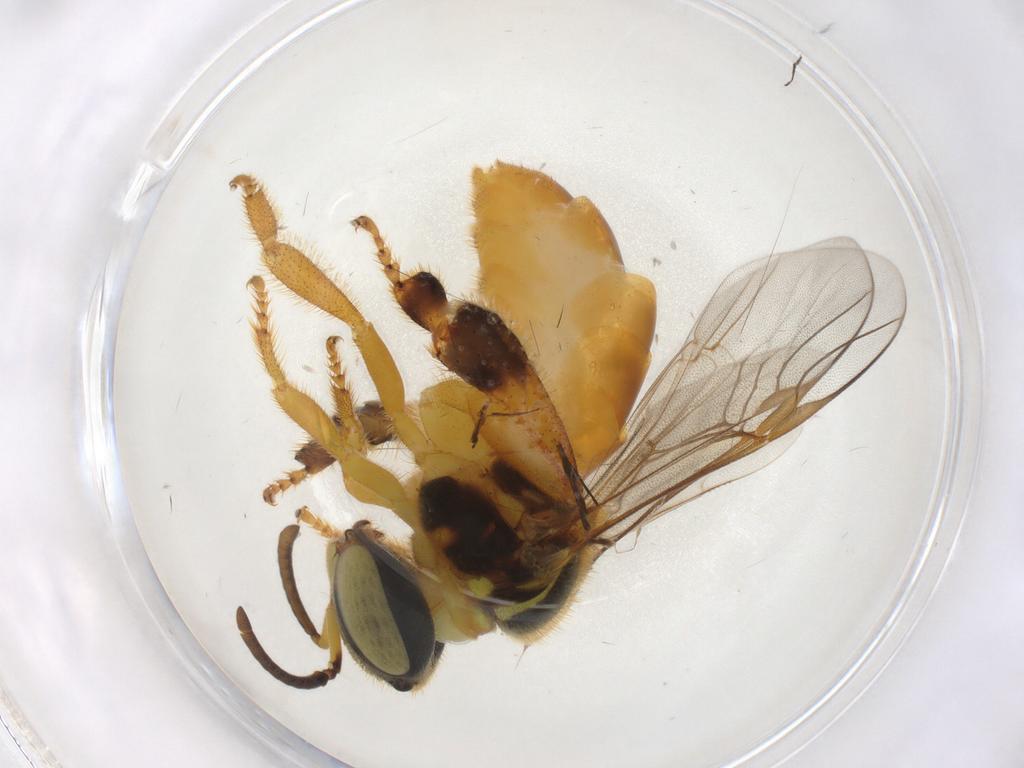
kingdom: Animalia
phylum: Arthropoda
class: Insecta
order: Hymenoptera
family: Apidae
